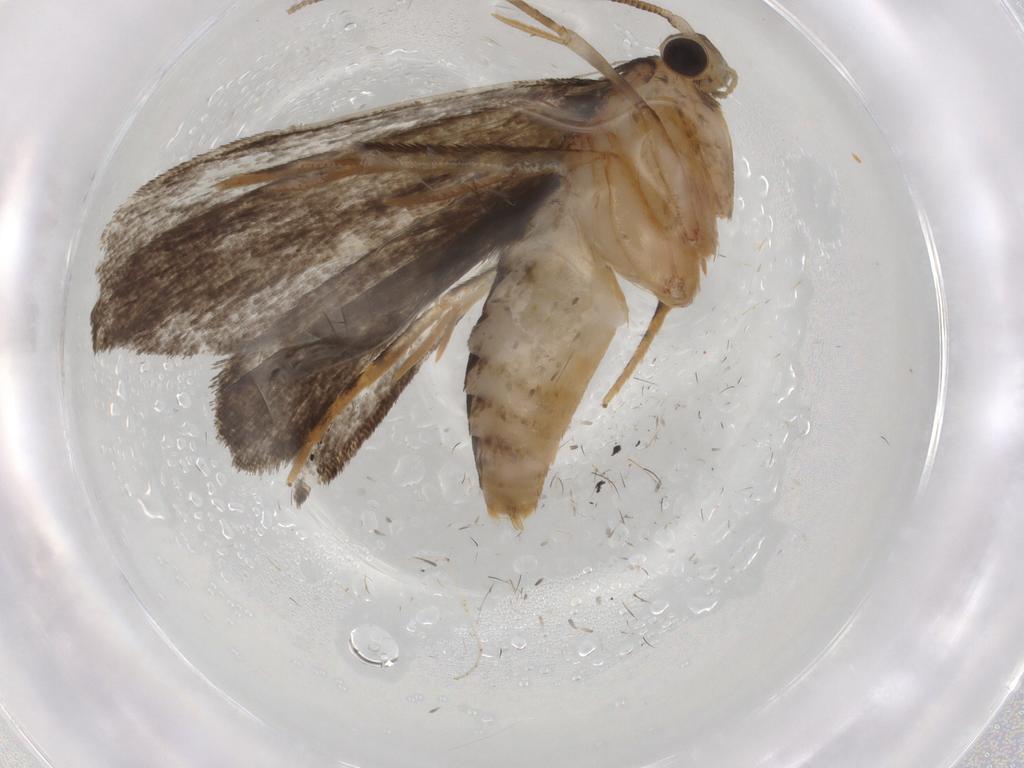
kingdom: Animalia
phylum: Arthropoda
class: Insecta
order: Lepidoptera
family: Tineidae
